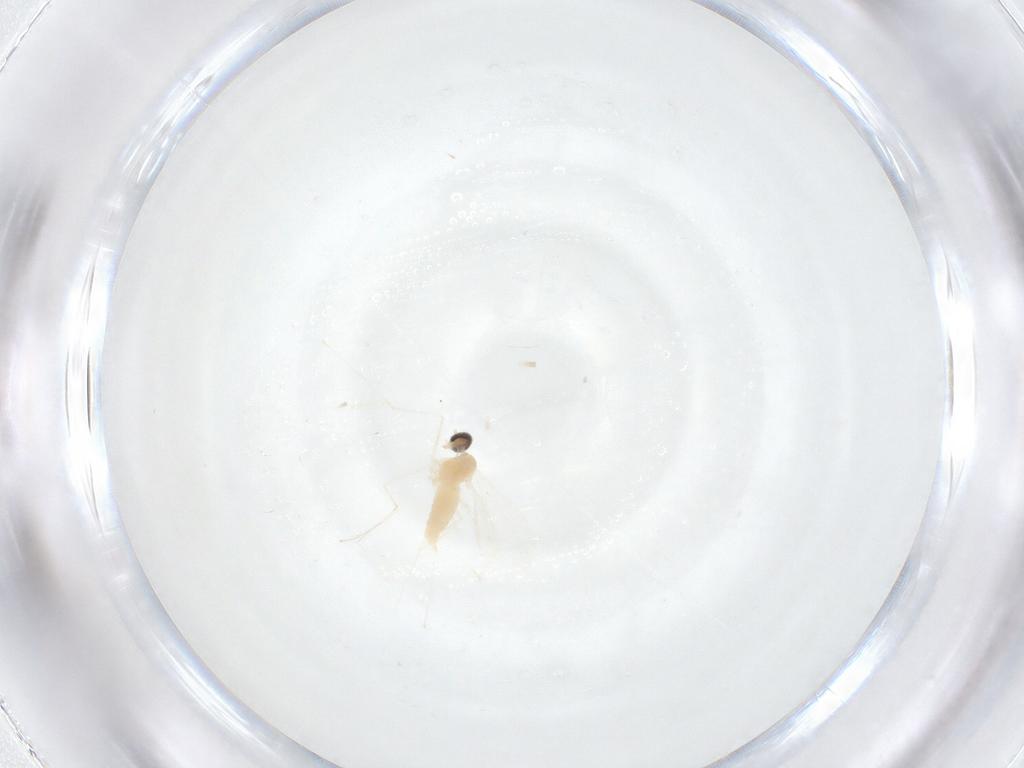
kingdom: Animalia
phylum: Arthropoda
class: Insecta
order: Diptera
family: Cecidomyiidae
